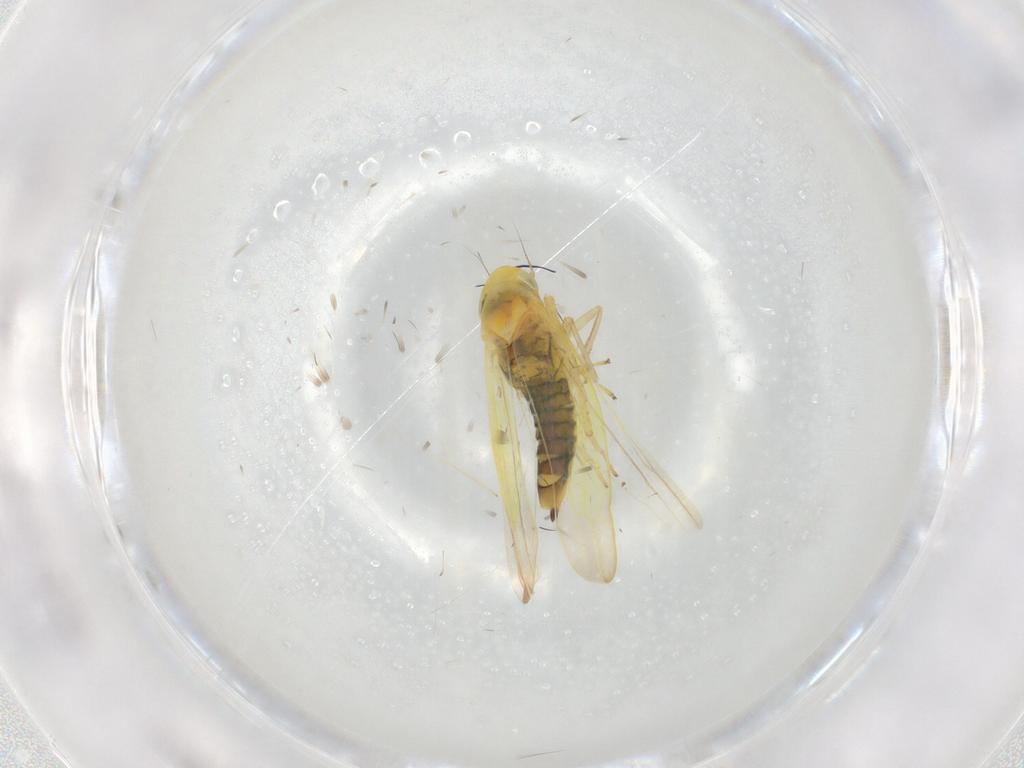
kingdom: Animalia
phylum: Arthropoda
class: Insecta
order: Hemiptera
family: Cicadellidae
